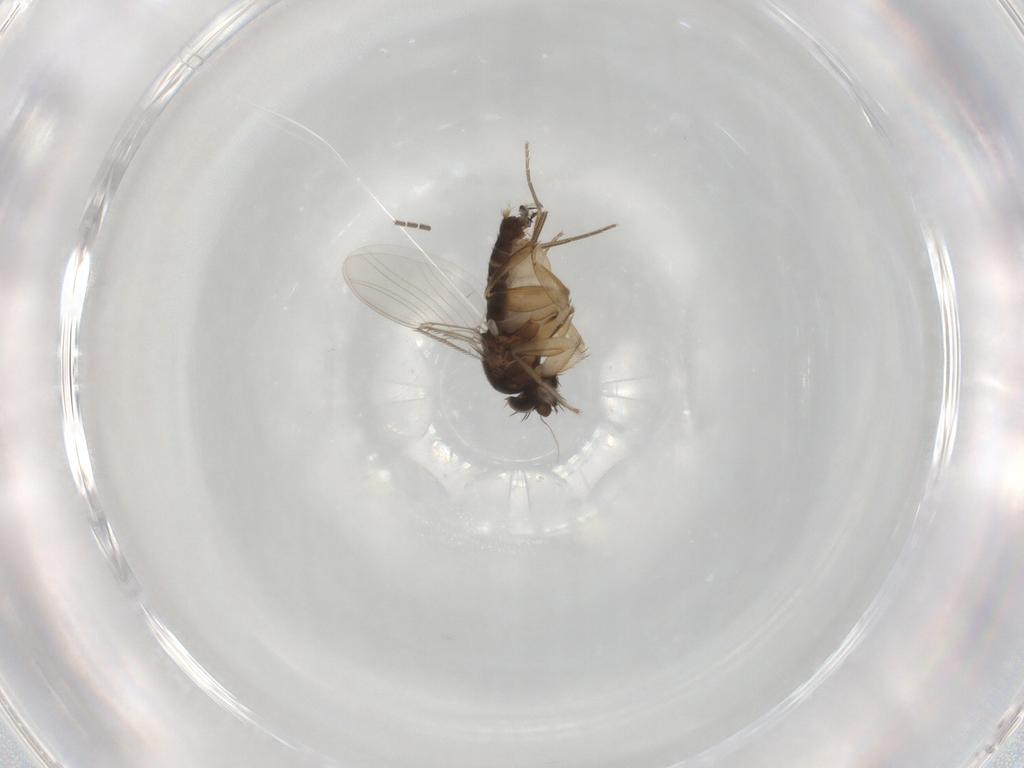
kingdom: Animalia
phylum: Arthropoda
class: Insecta
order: Diptera
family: Phoridae
